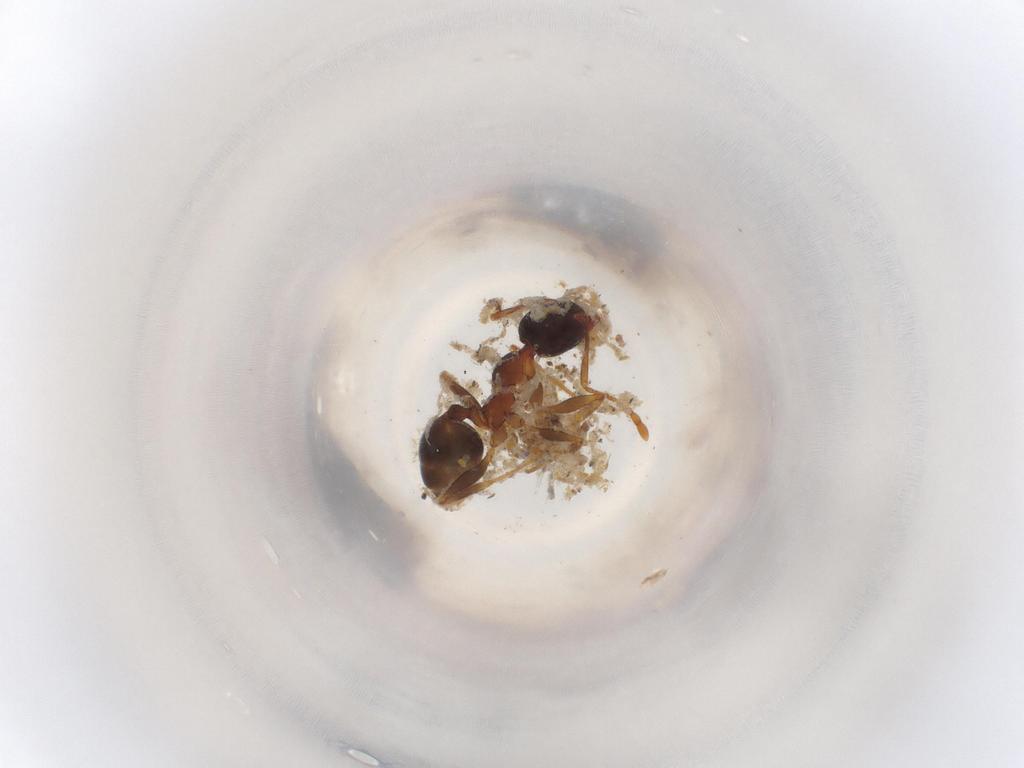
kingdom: Animalia
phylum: Arthropoda
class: Insecta
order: Hymenoptera
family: Formicidae
